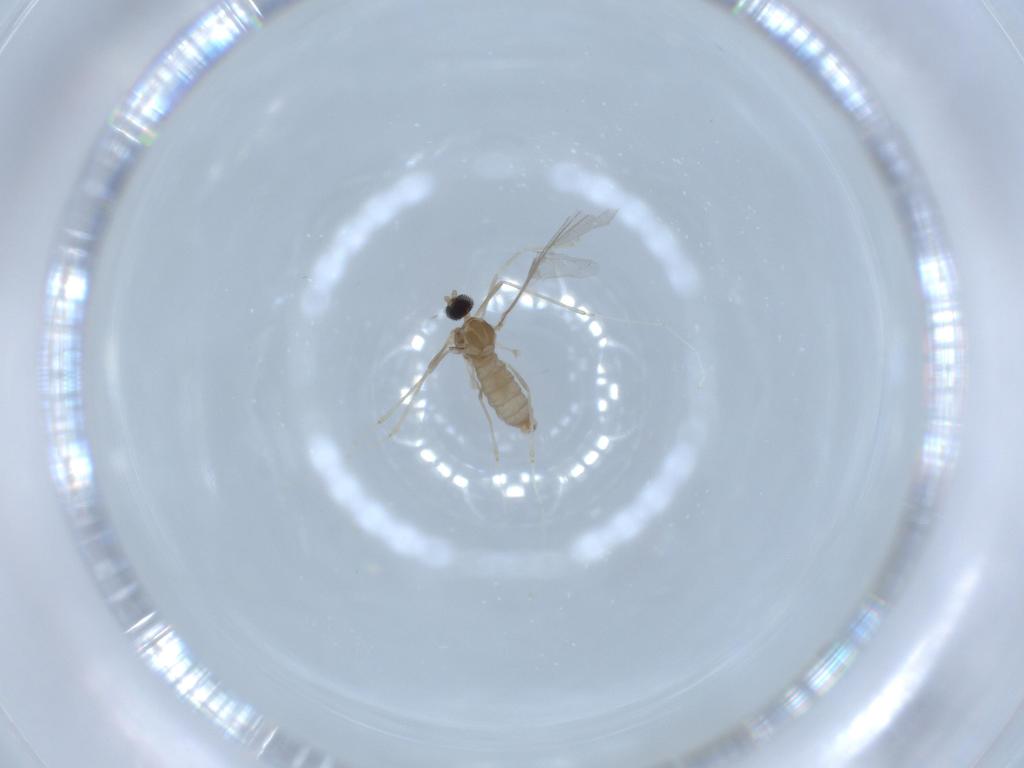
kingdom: Animalia
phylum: Arthropoda
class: Insecta
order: Diptera
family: Cecidomyiidae
